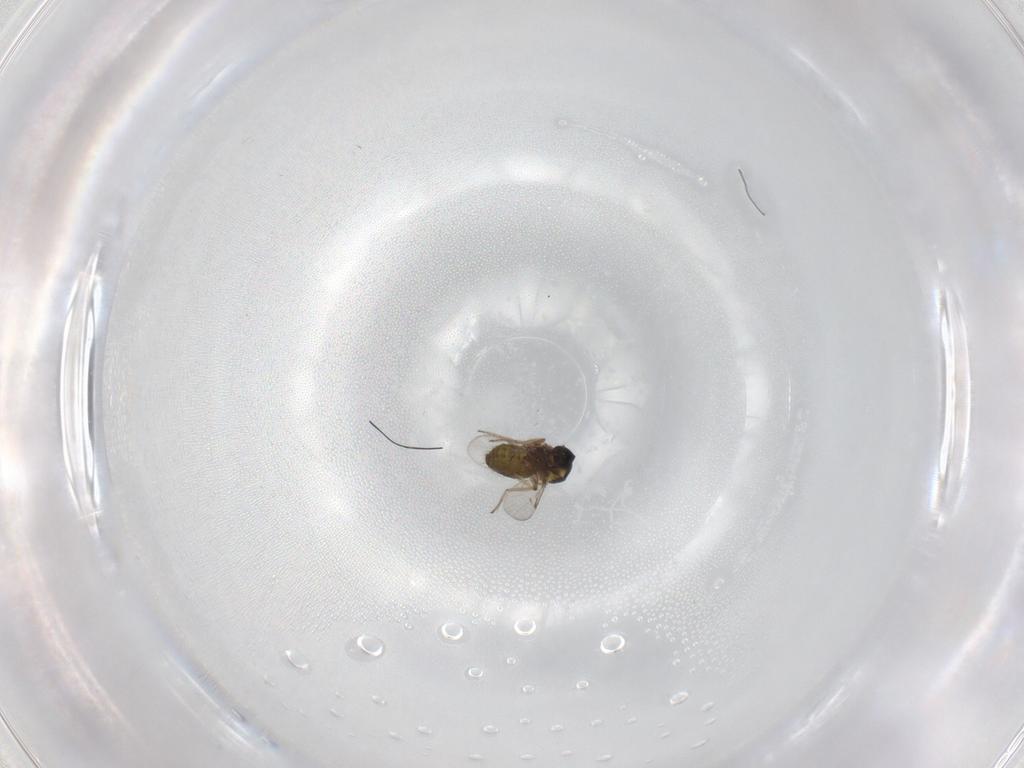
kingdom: Animalia
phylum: Arthropoda
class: Insecta
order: Diptera
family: Ceratopogonidae
